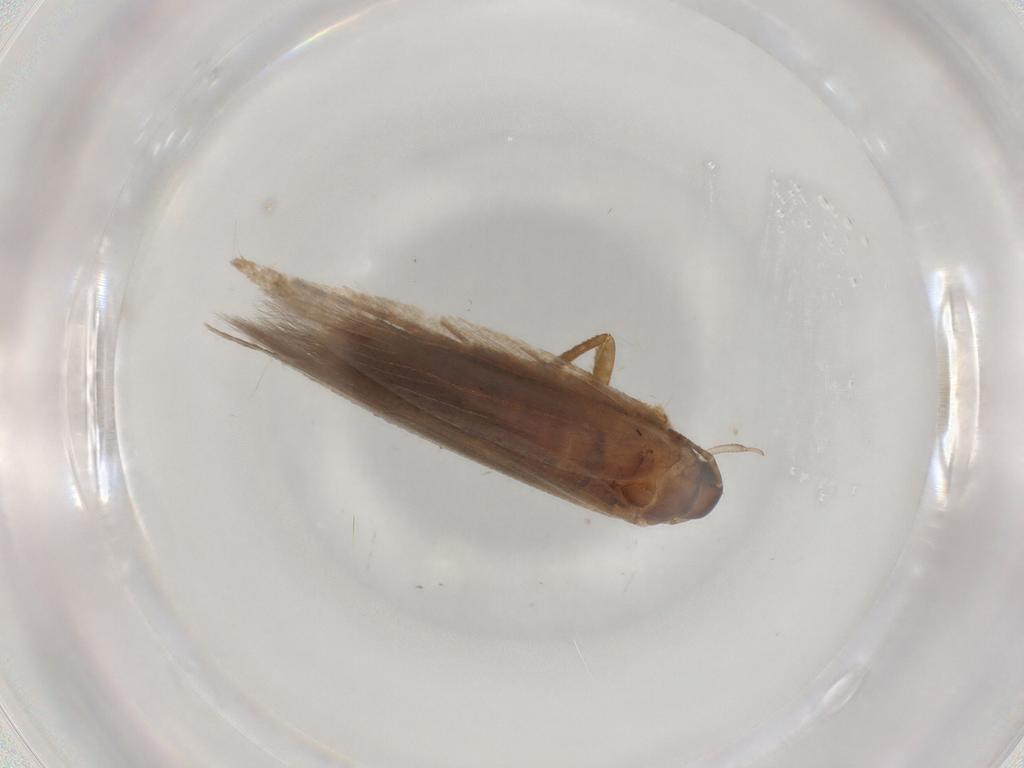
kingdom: Animalia
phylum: Arthropoda
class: Insecta
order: Lepidoptera
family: Gelechiidae
